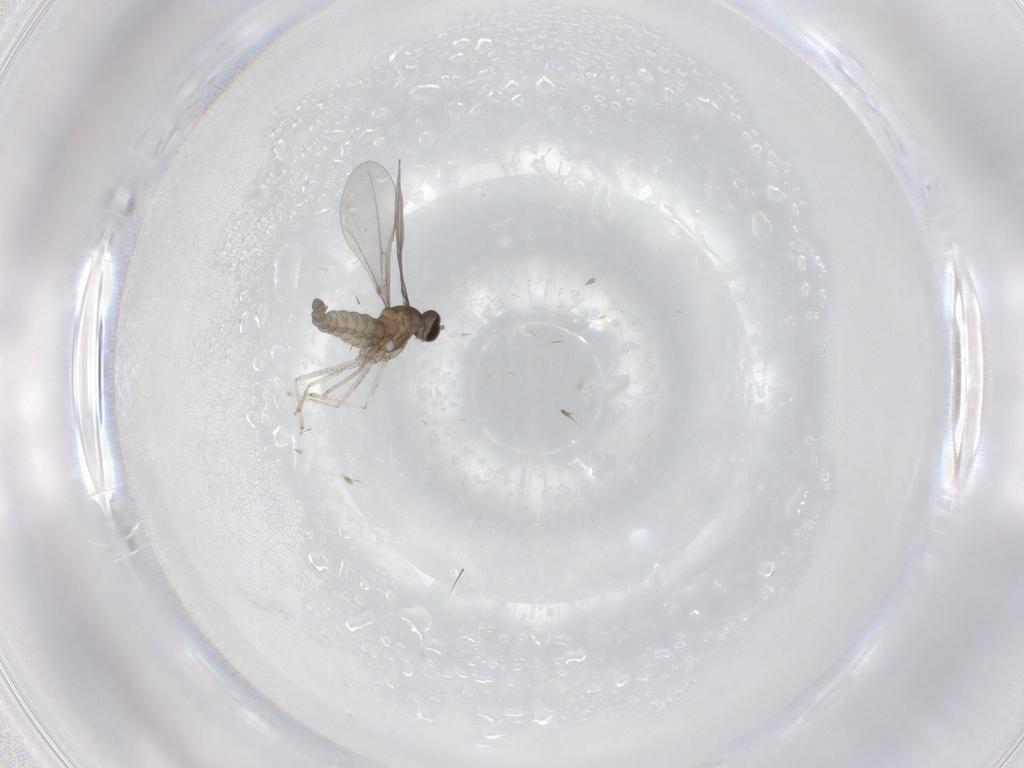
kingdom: Animalia
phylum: Arthropoda
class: Insecta
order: Diptera
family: Cecidomyiidae
